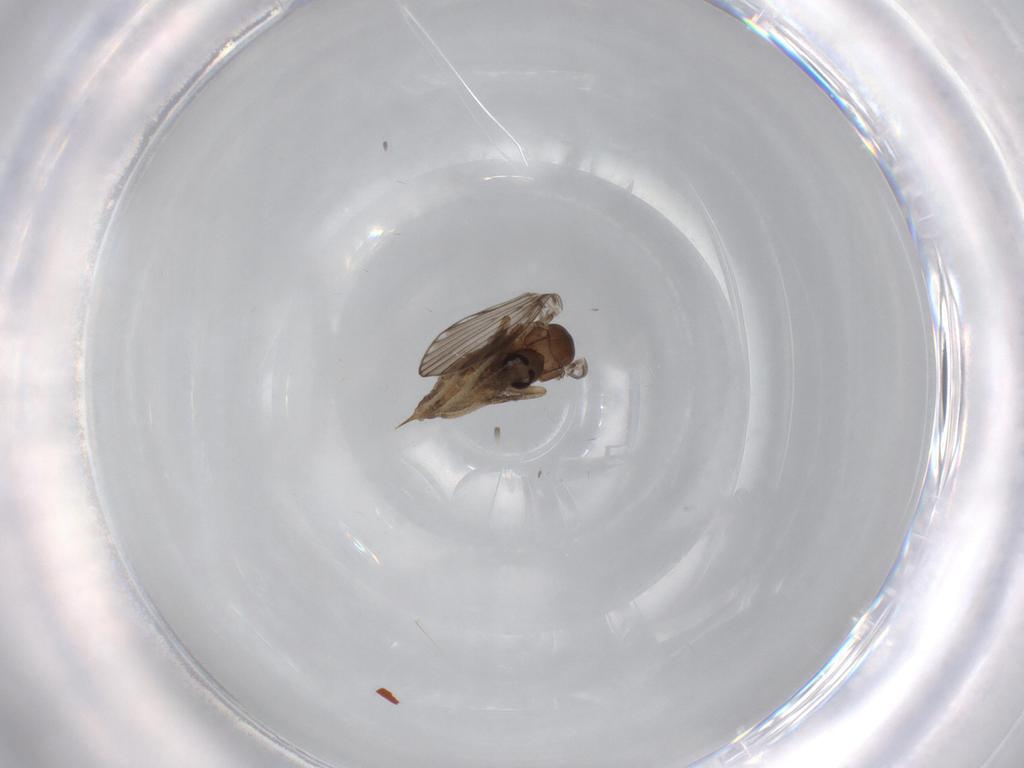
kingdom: Animalia
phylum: Arthropoda
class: Insecta
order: Diptera
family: Psychodidae
